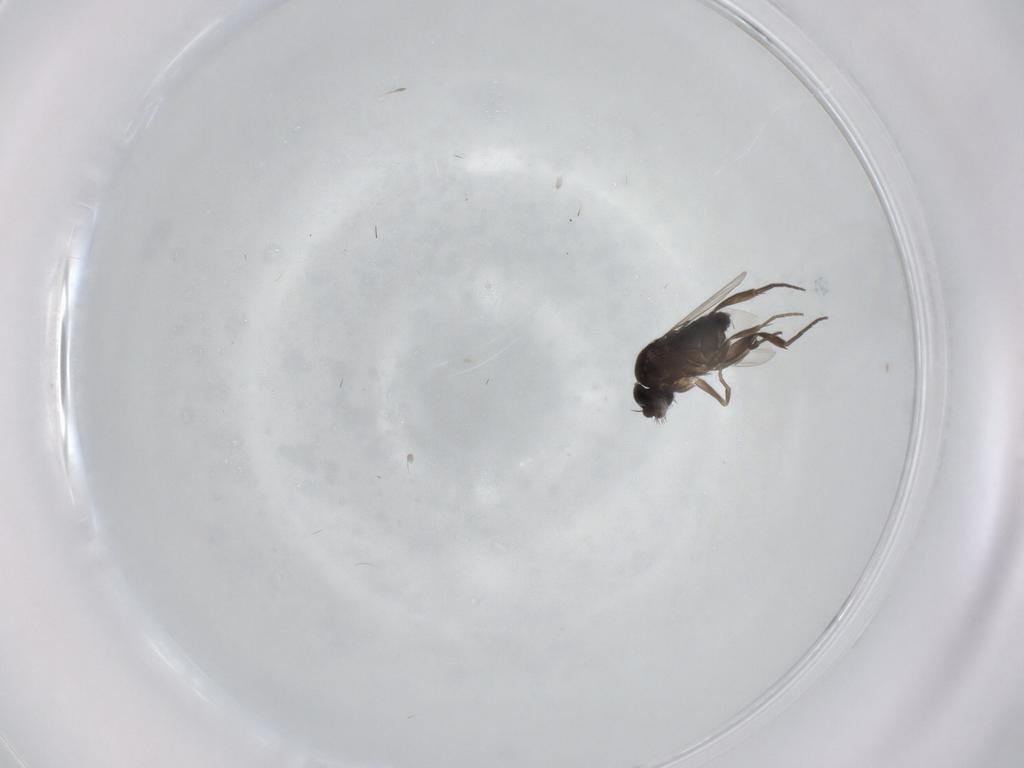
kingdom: Animalia
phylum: Arthropoda
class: Insecta
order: Diptera
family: Phoridae
